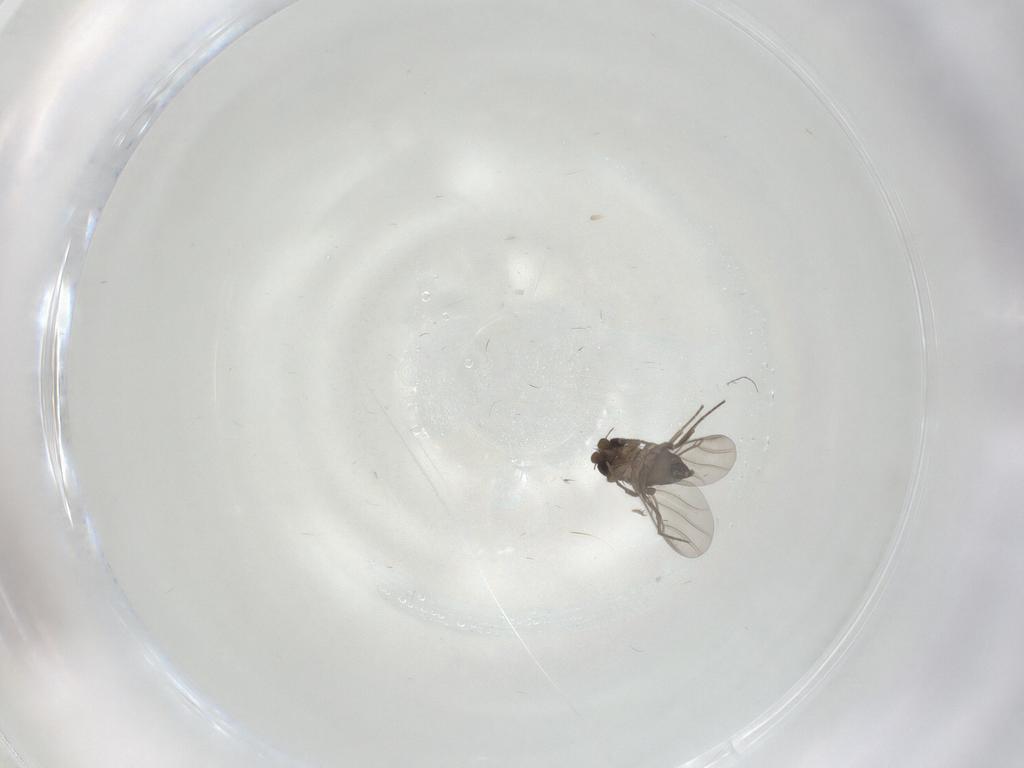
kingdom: Animalia
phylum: Arthropoda
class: Insecta
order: Diptera
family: Phoridae
